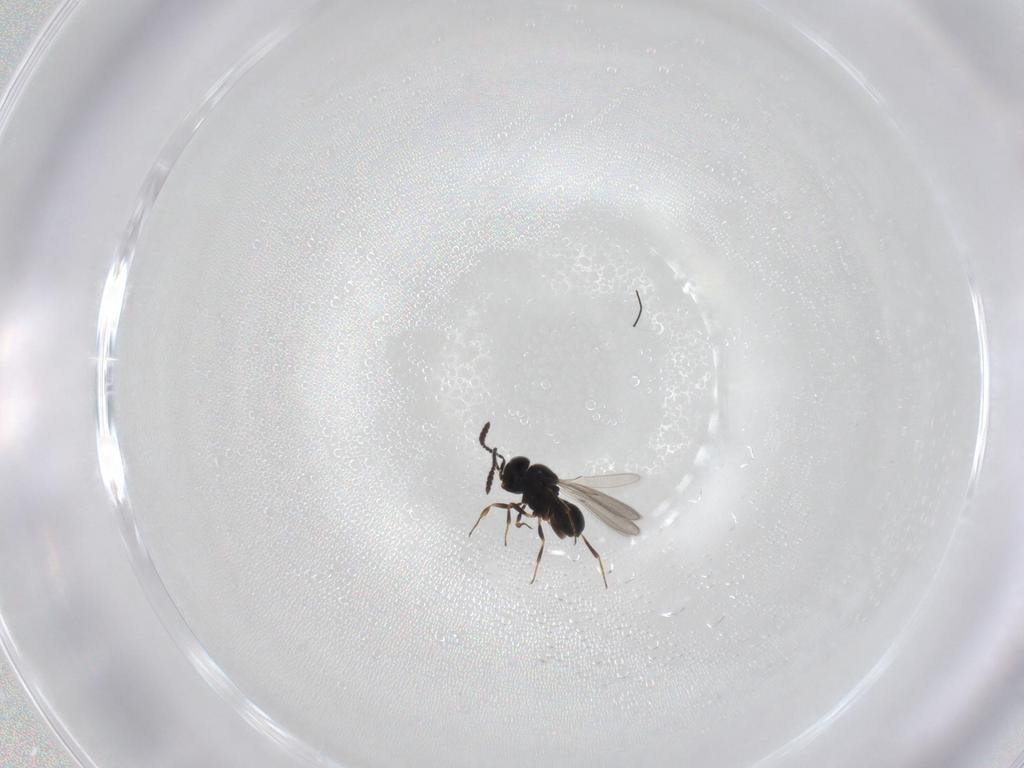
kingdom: Animalia
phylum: Arthropoda
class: Insecta
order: Hymenoptera
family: Scelionidae
